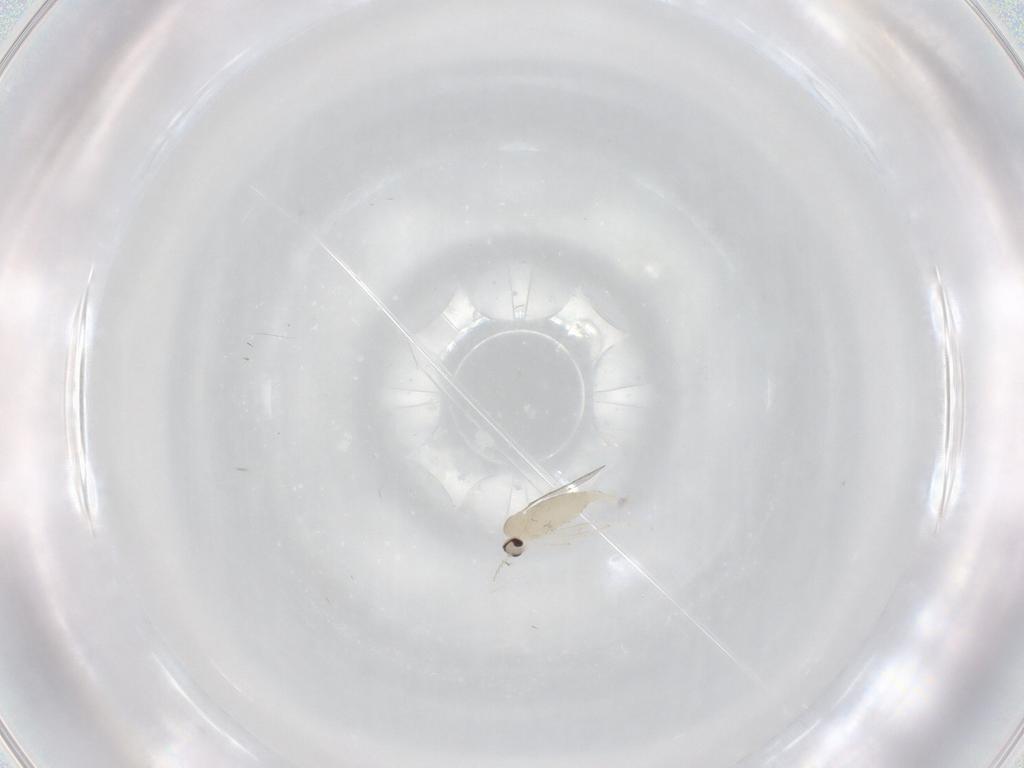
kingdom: Animalia
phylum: Arthropoda
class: Insecta
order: Diptera
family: Cecidomyiidae
